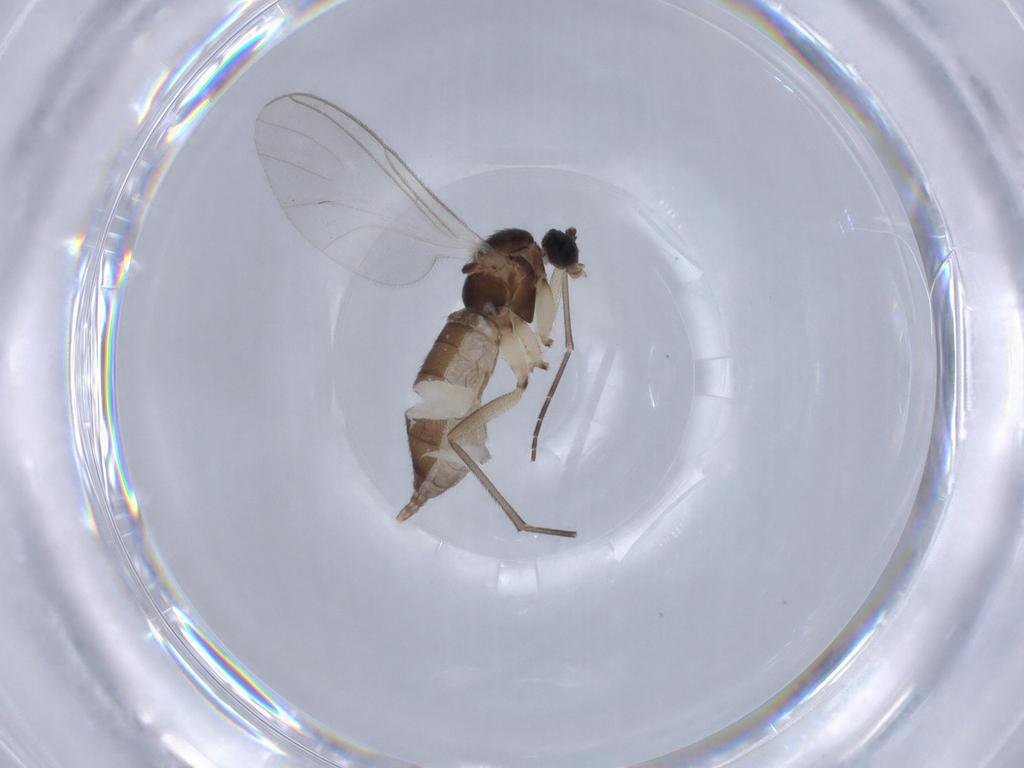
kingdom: Animalia
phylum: Arthropoda
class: Insecta
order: Diptera
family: Sciaridae
